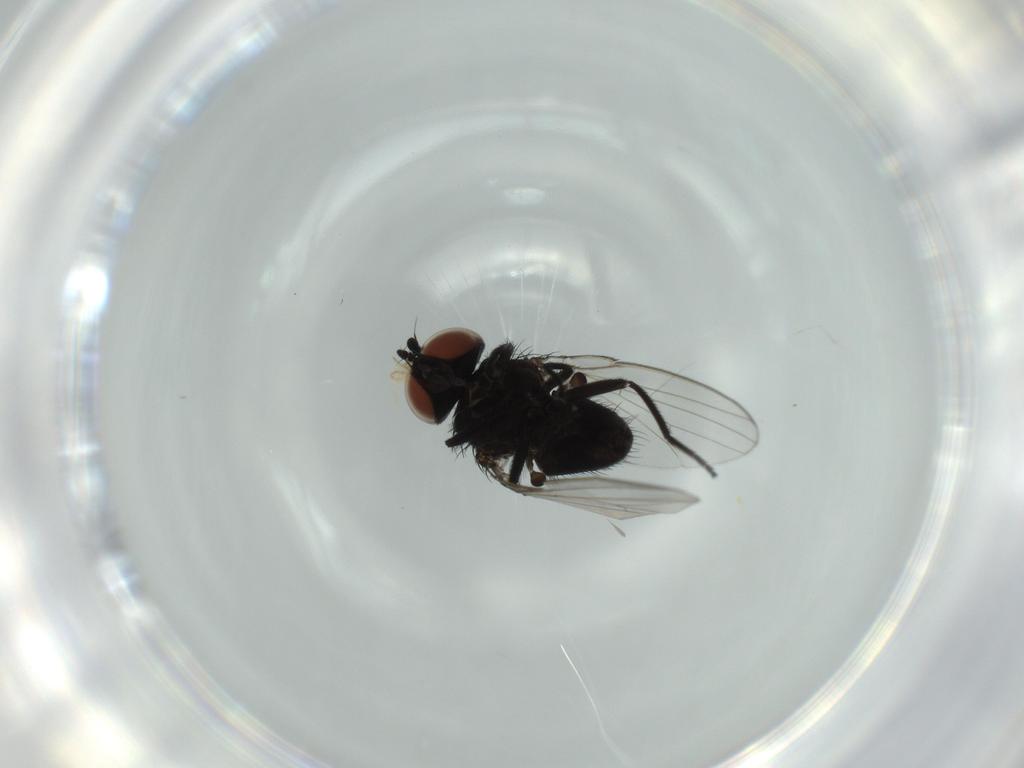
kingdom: Animalia
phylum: Arthropoda
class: Insecta
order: Diptera
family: Milichiidae
